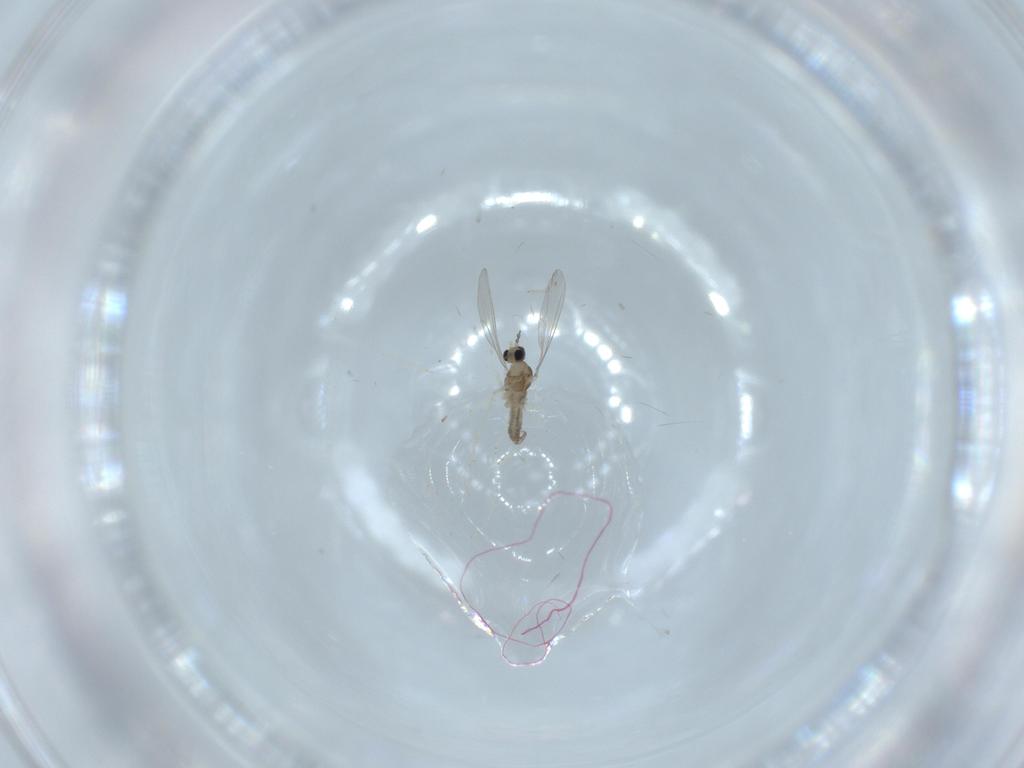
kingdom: Animalia
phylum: Arthropoda
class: Insecta
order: Diptera
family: Cecidomyiidae
